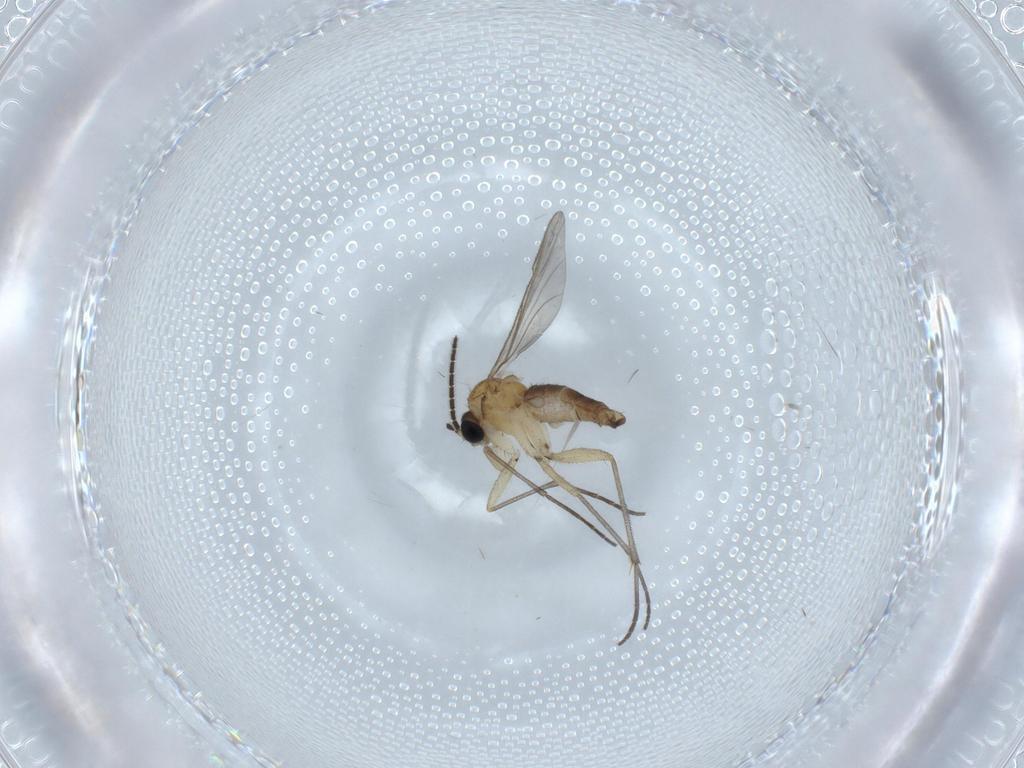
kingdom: Animalia
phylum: Arthropoda
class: Insecta
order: Diptera
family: Sciaridae
